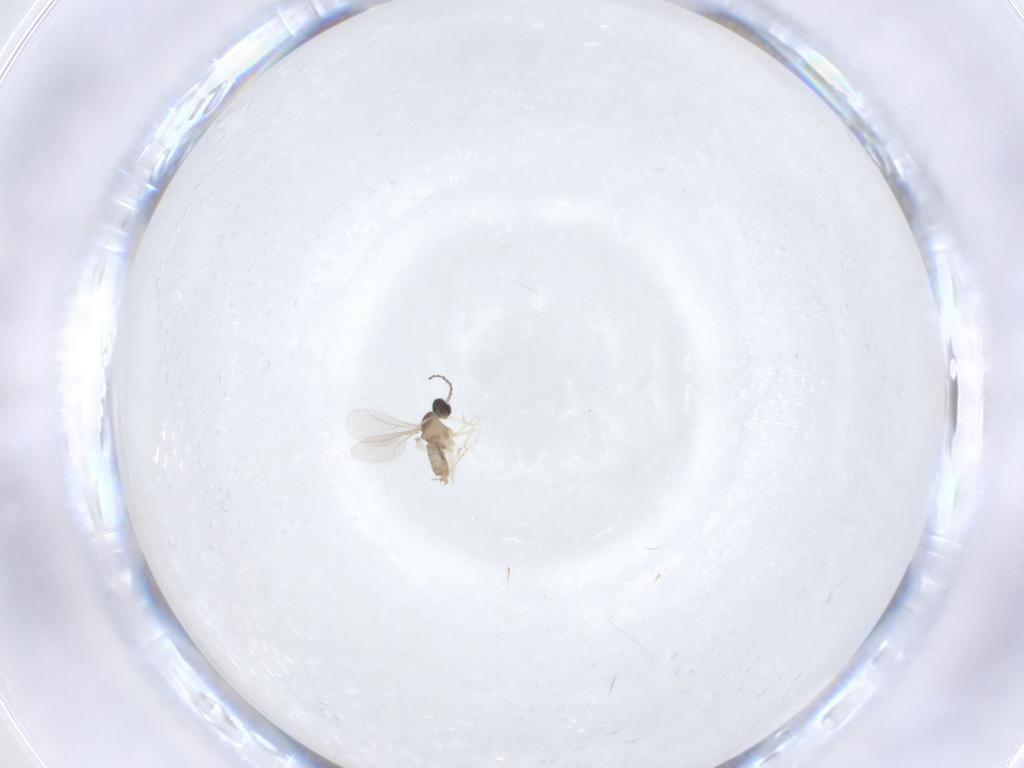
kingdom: Animalia
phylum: Arthropoda
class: Insecta
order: Diptera
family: Cecidomyiidae
